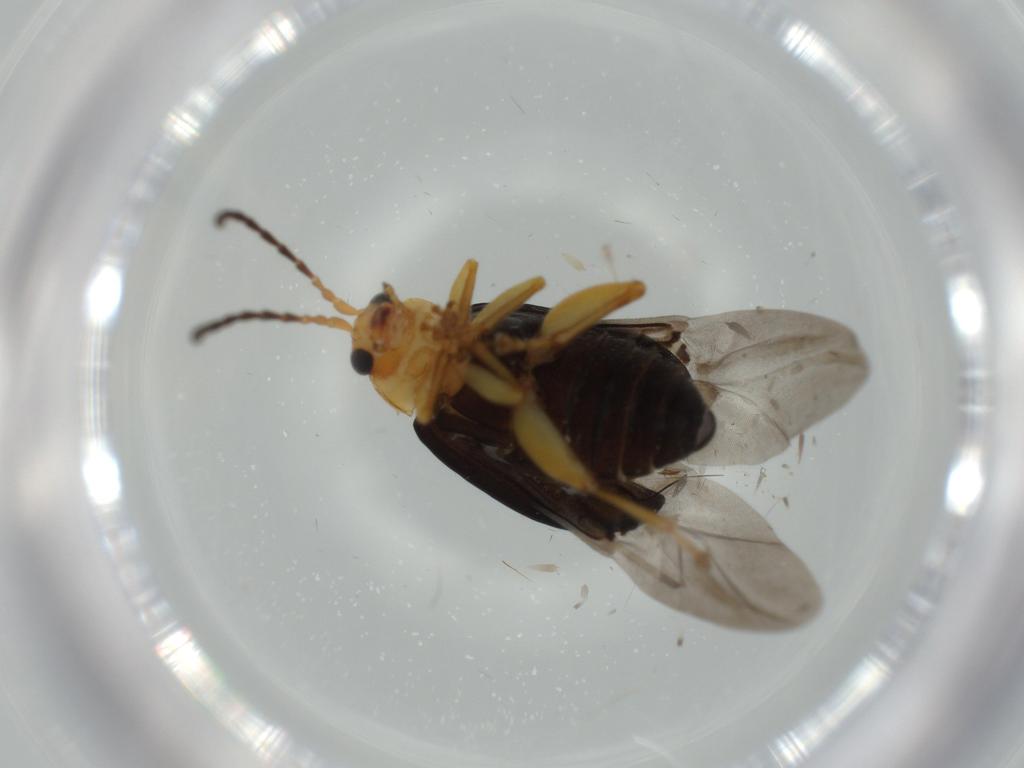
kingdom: Animalia
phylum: Arthropoda
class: Insecta
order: Coleoptera
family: Chrysomelidae
